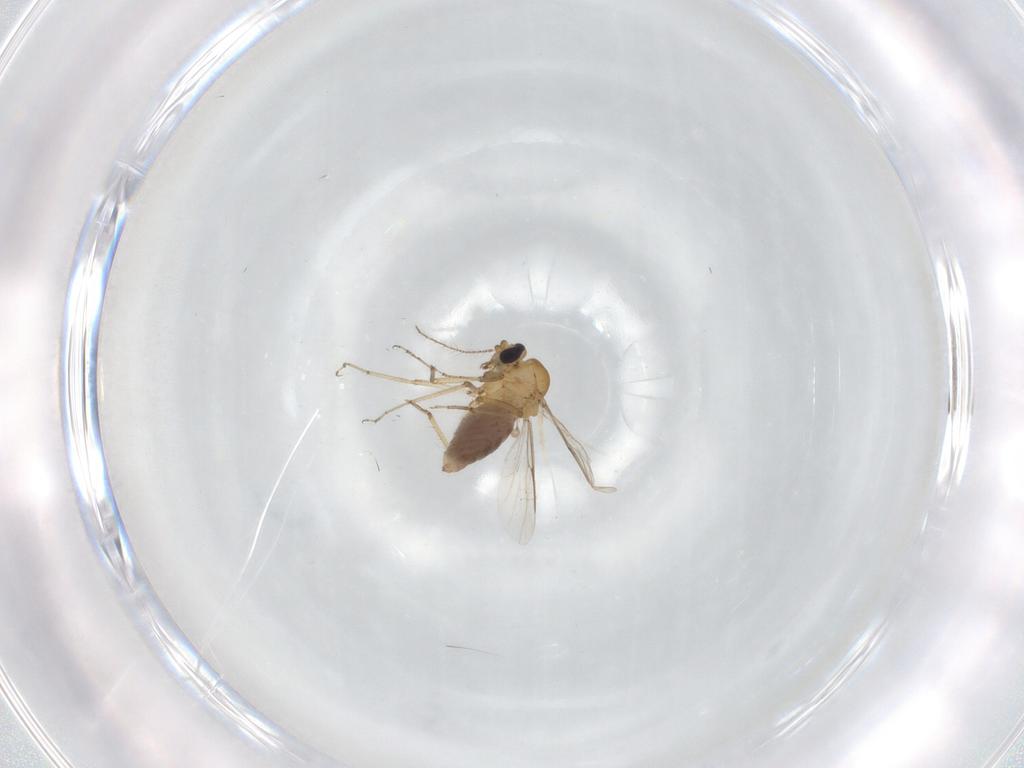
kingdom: Animalia
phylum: Arthropoda
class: Insecta
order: Diptera
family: Ceratopogonidae
